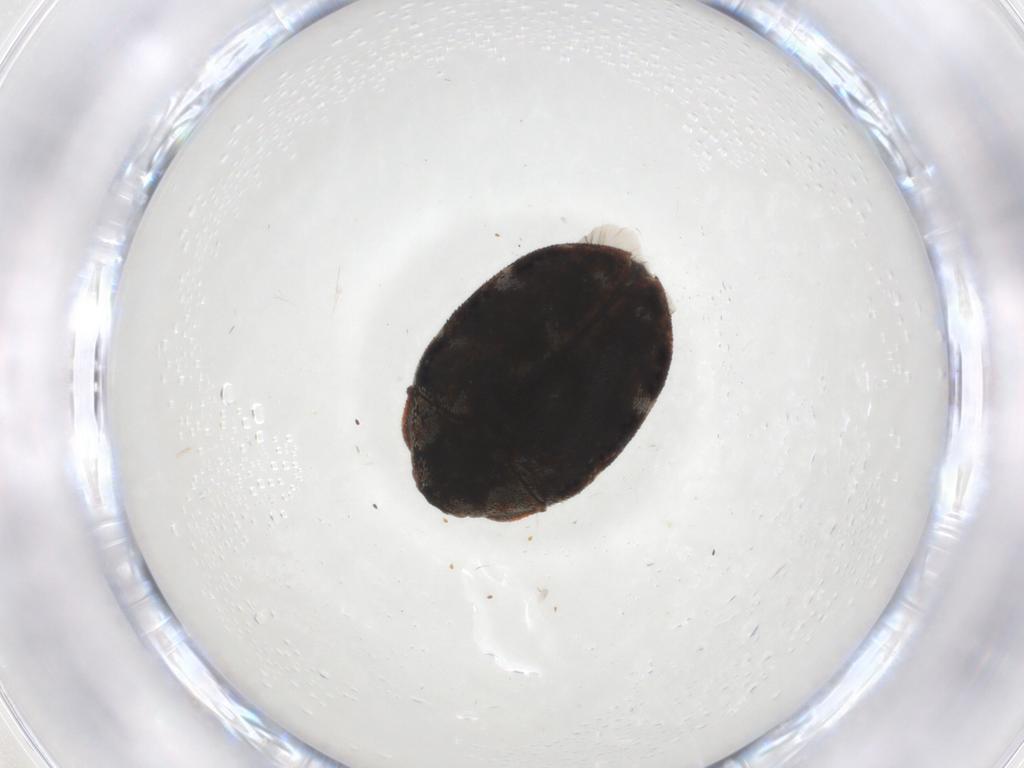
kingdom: Animalia
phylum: Arthropoda
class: Insecta
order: Coleoptera
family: Dermestidae
